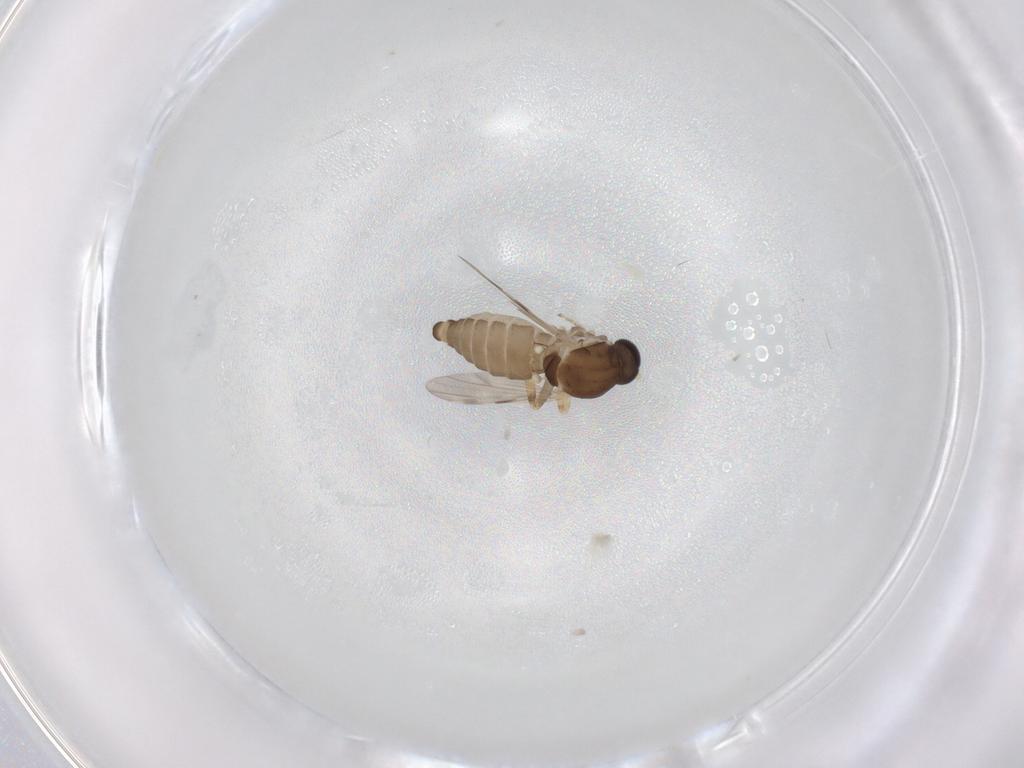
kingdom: Animalia
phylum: Arthropoda
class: Insecta
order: Diptera
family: Ceratopogonidae
